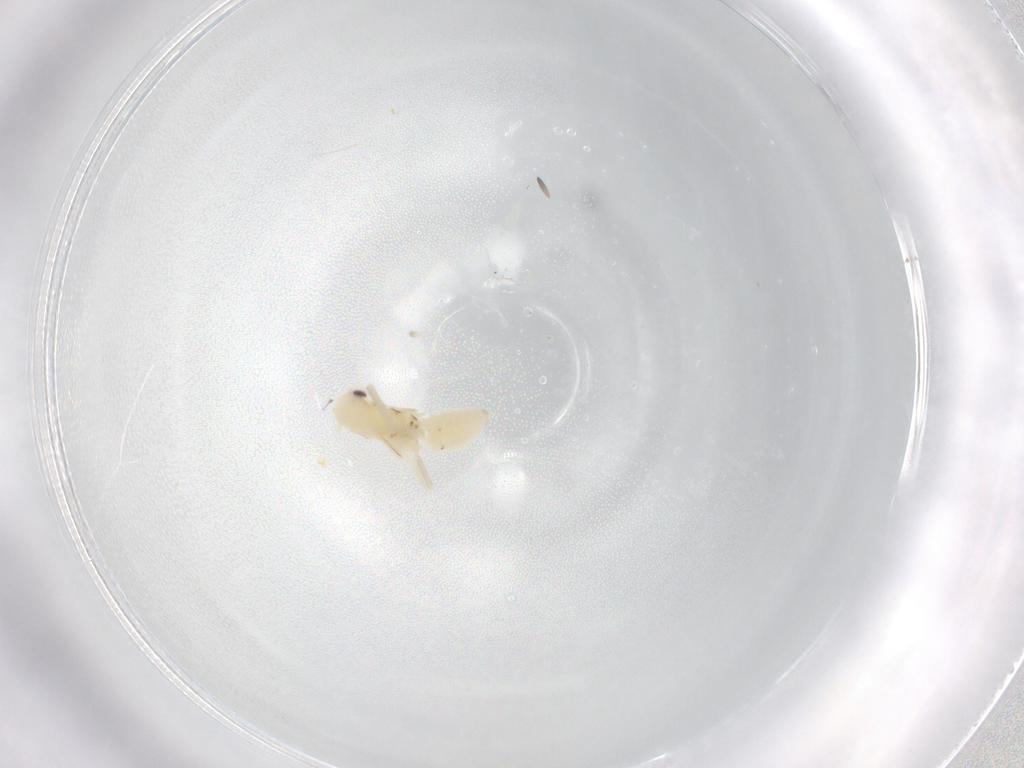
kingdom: Animalia
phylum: Arthropoda
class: Insecta
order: Hemiptera
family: Cicadellidae
